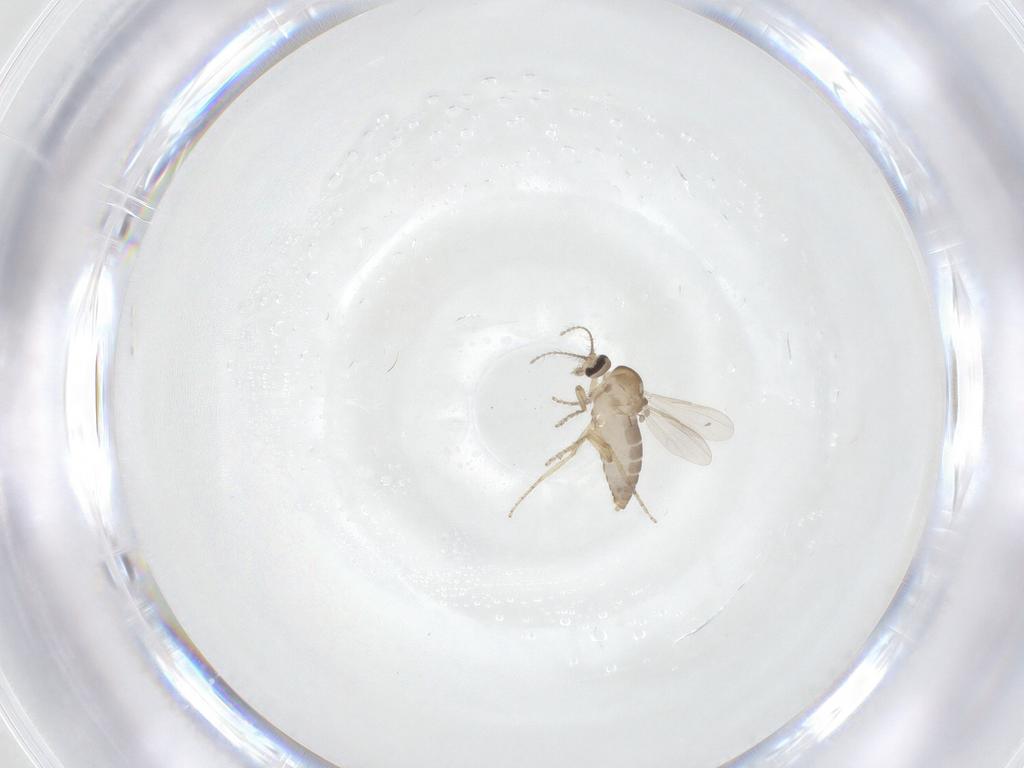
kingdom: Animalia
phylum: Arthropoda
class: Insecta
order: Diptera
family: Ceratopogonidae
